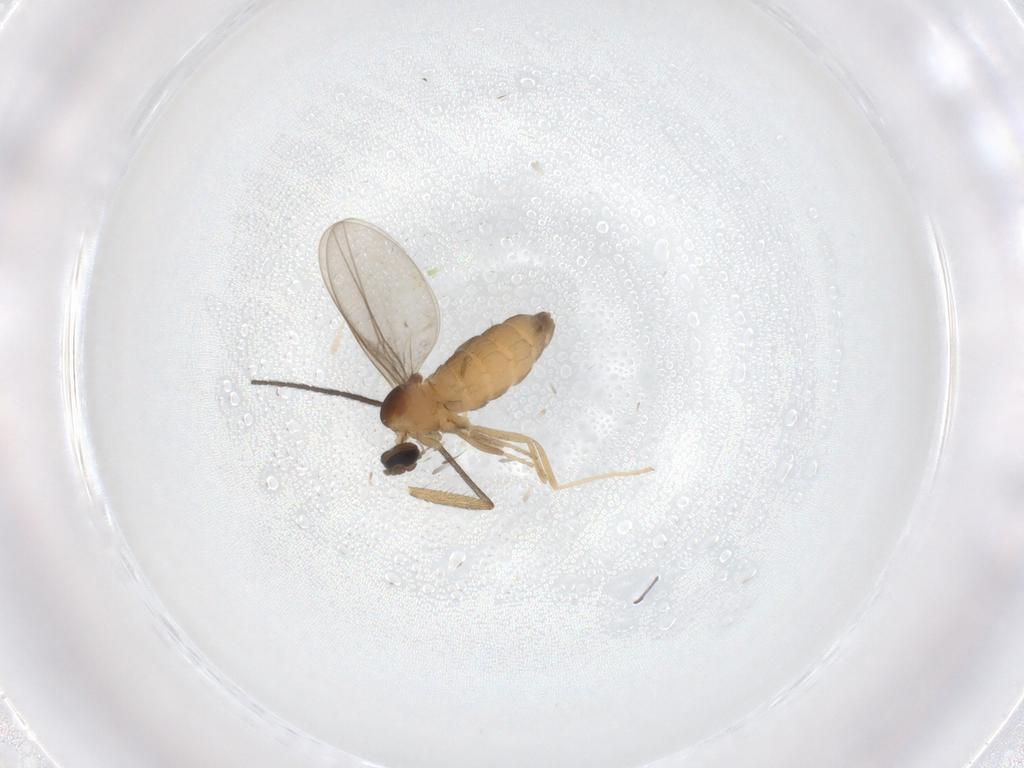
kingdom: Animalia
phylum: Arthropoda
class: Insecta
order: Diptera
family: Cecidomyiidae
